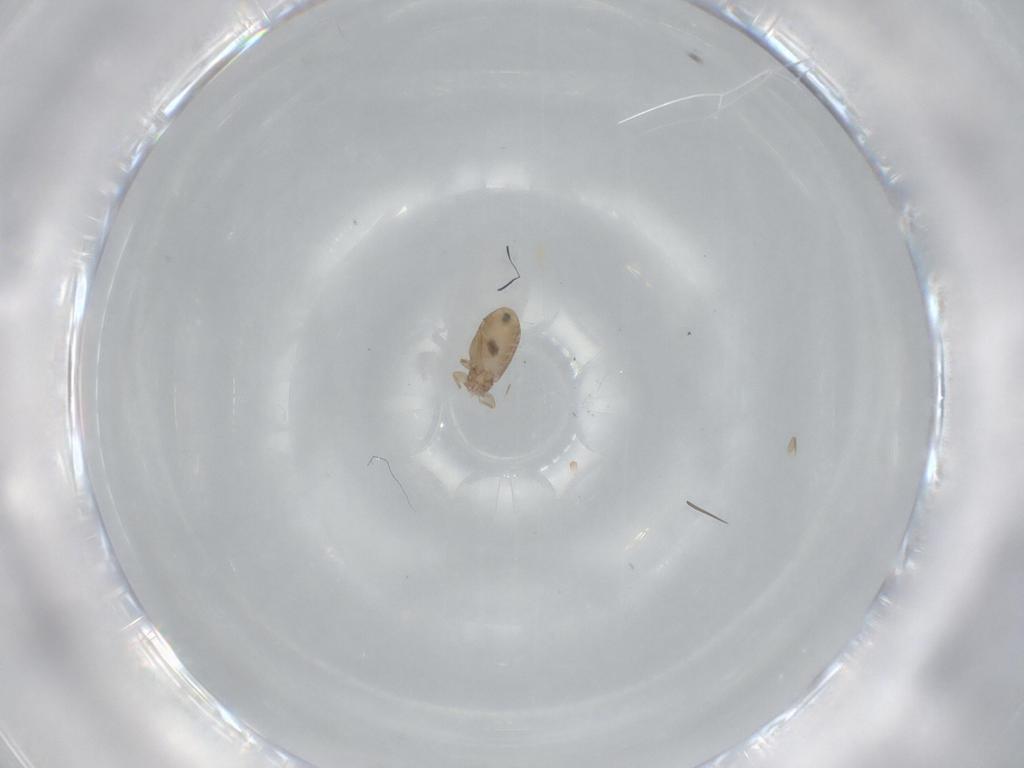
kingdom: Animalia
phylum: Arthropoda
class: Insecta
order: Psocodea
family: Liposcelididae
